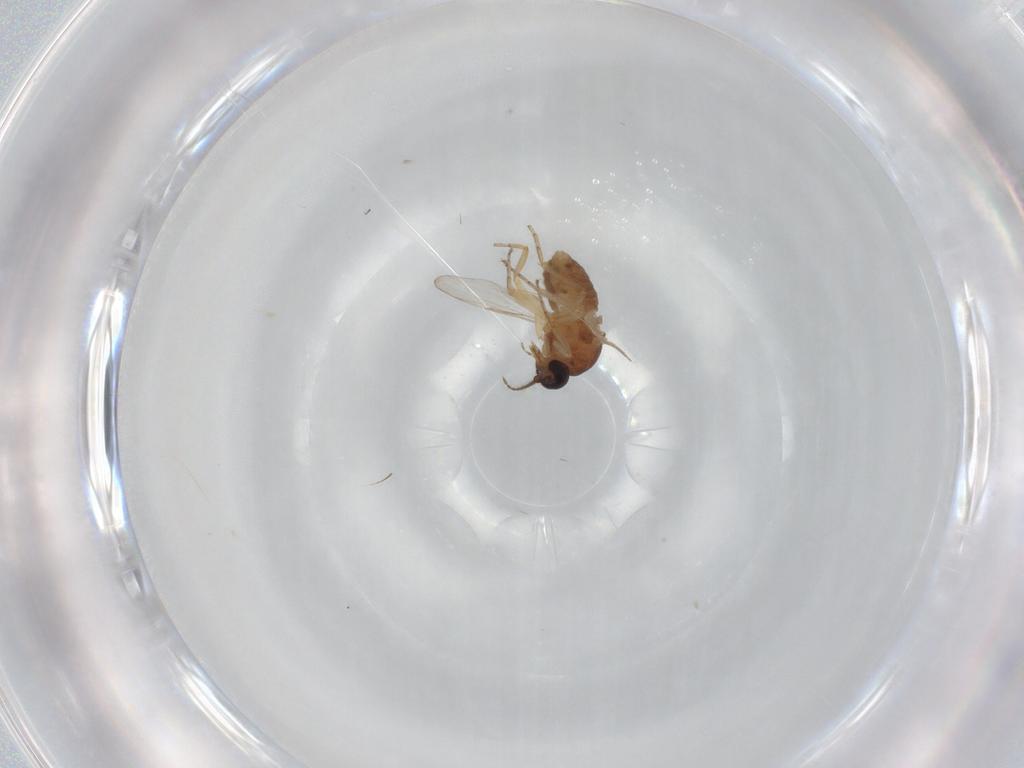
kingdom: Animalia
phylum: Arthropoda
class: Insecta
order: Diptera
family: Ceratopogonidae
